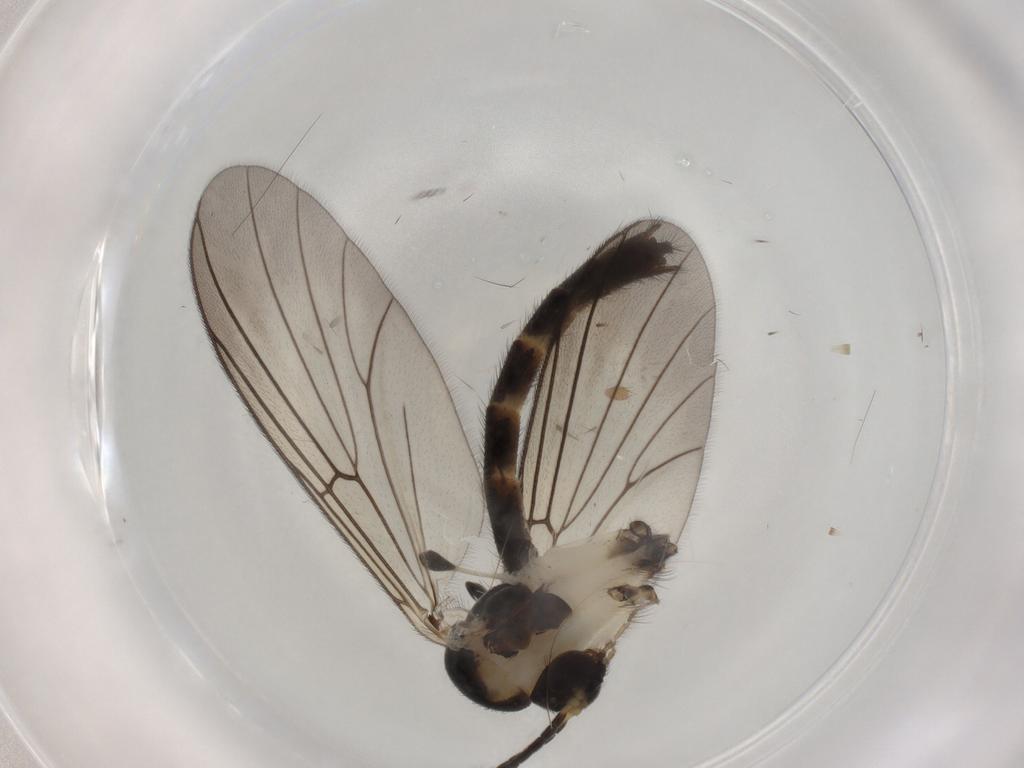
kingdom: Animalia
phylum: Arthropoda
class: Insecta
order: Diptera
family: Mycetophilidae
